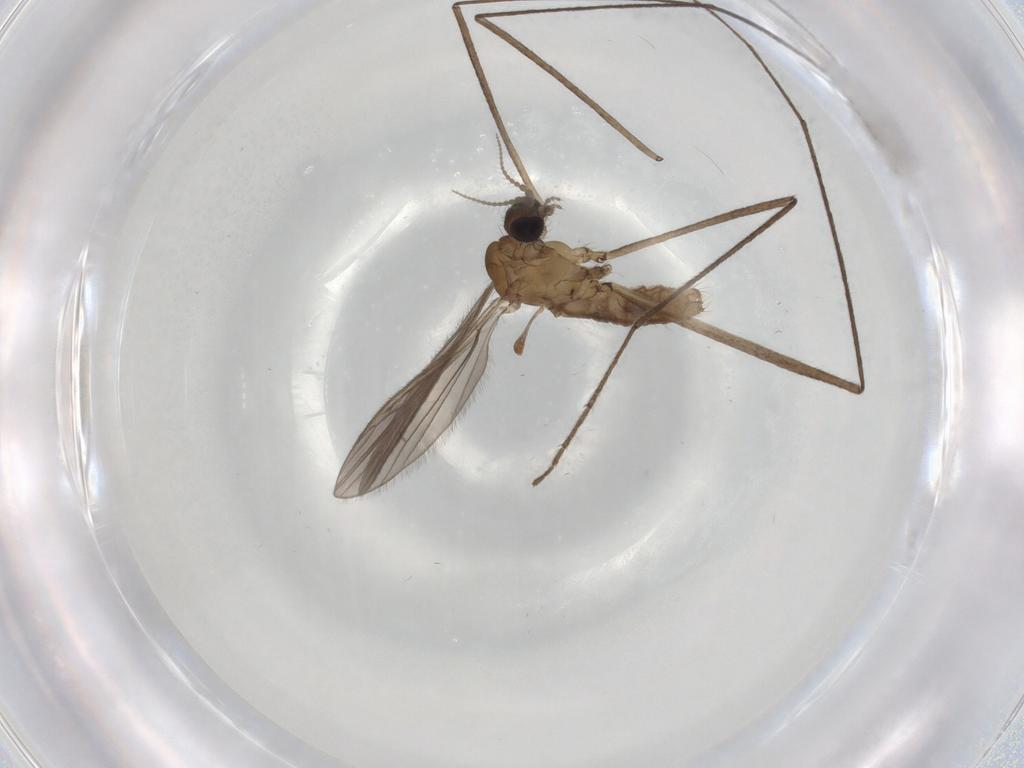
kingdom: Animalia
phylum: Arthropoda
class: Insecta
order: Diptera
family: Limoniidae
